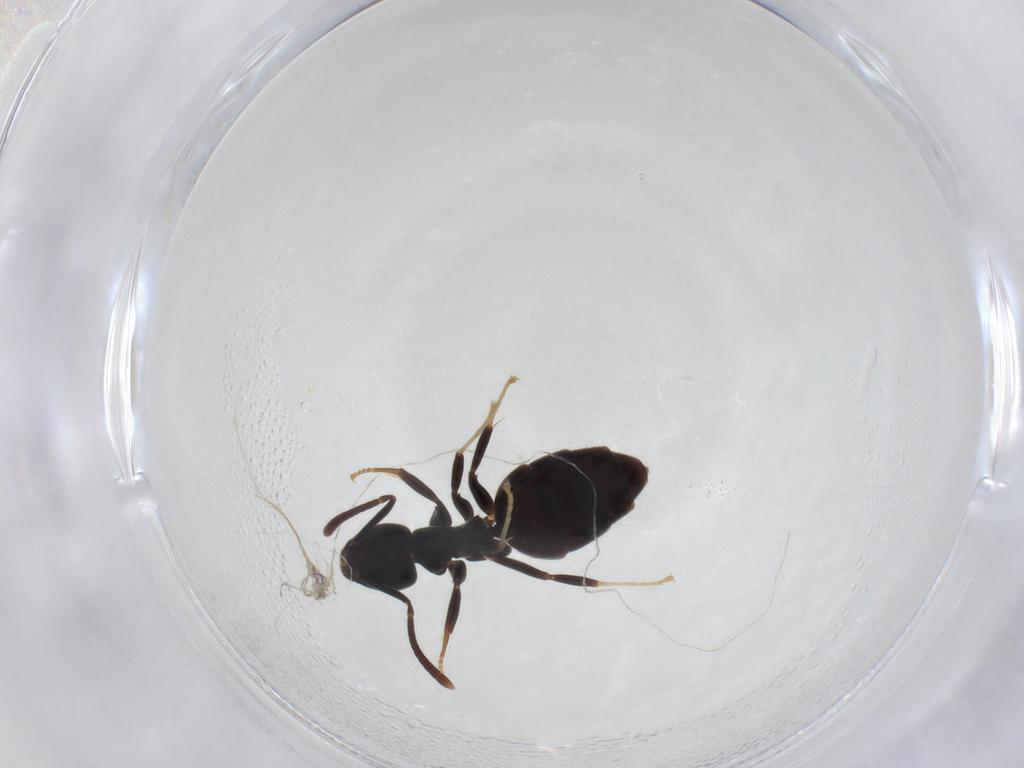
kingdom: Animalia
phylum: Arthropoda
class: Insecta
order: Hymenoptera
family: Formicidae
